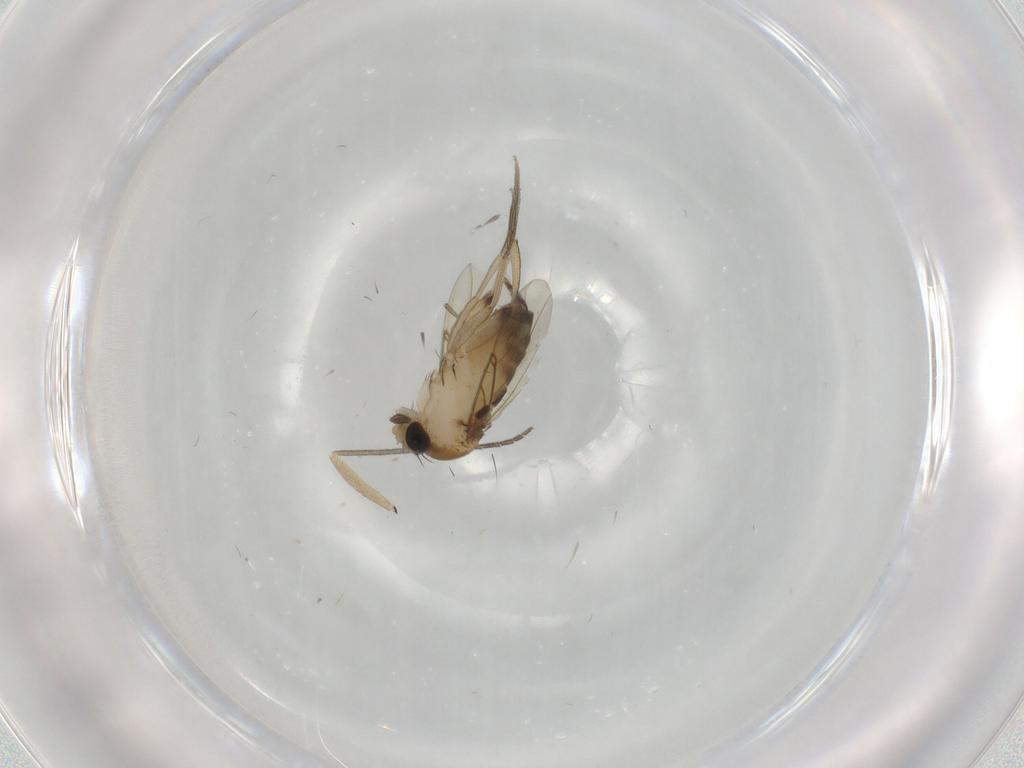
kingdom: Animalia
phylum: Arthropoda
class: Insecta
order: Diptera
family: Phoridae
